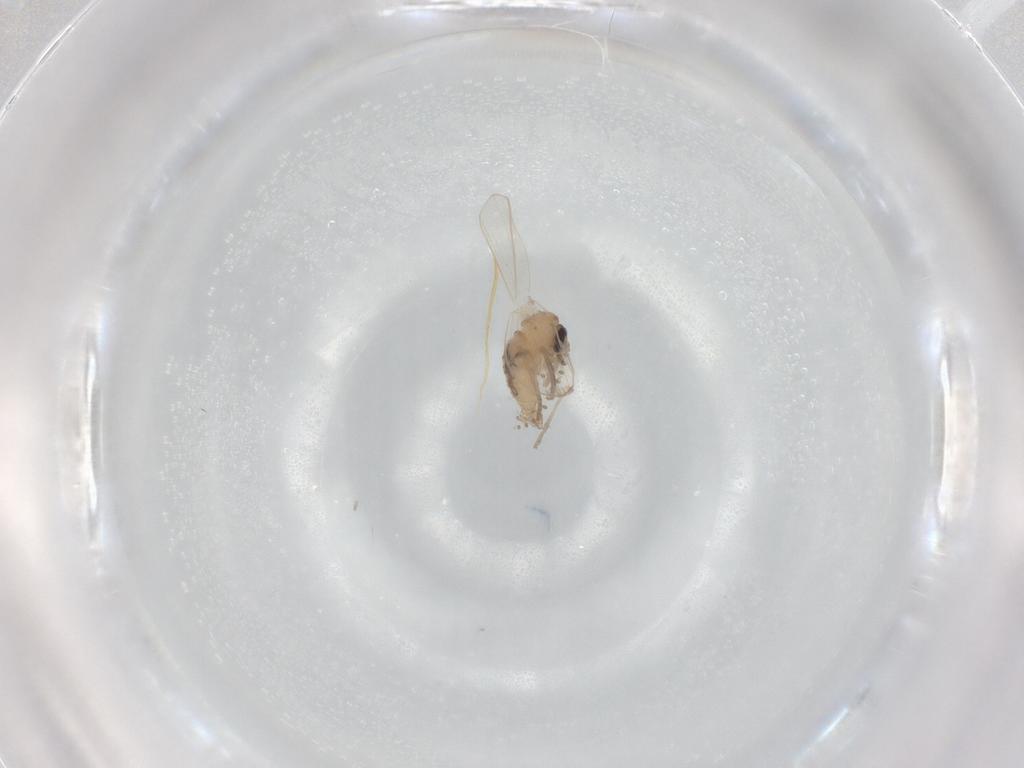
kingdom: Animalia
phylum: Arthropoda
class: Insecta
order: Diptera
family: Psychodidae
